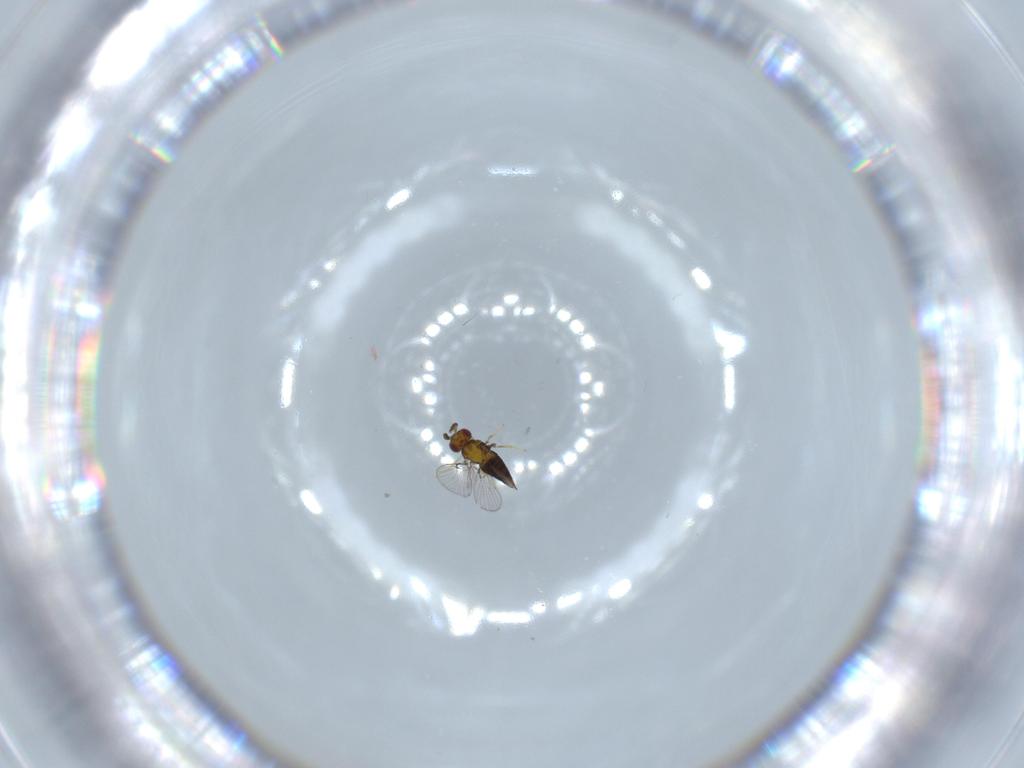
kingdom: Animalia
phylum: Arthropoda
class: Insecta
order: Hymenoptera
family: Trichogrammatidae
